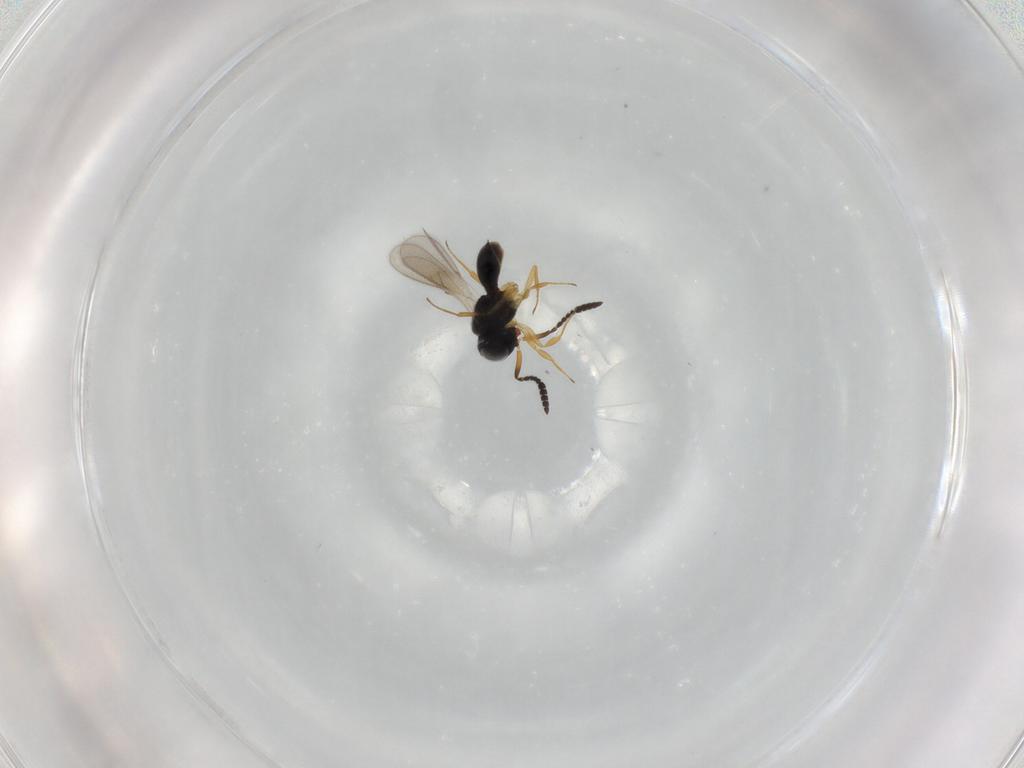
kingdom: Animalia
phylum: Arthropoda
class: Insecta
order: Hymenoptera
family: Scelionidae
